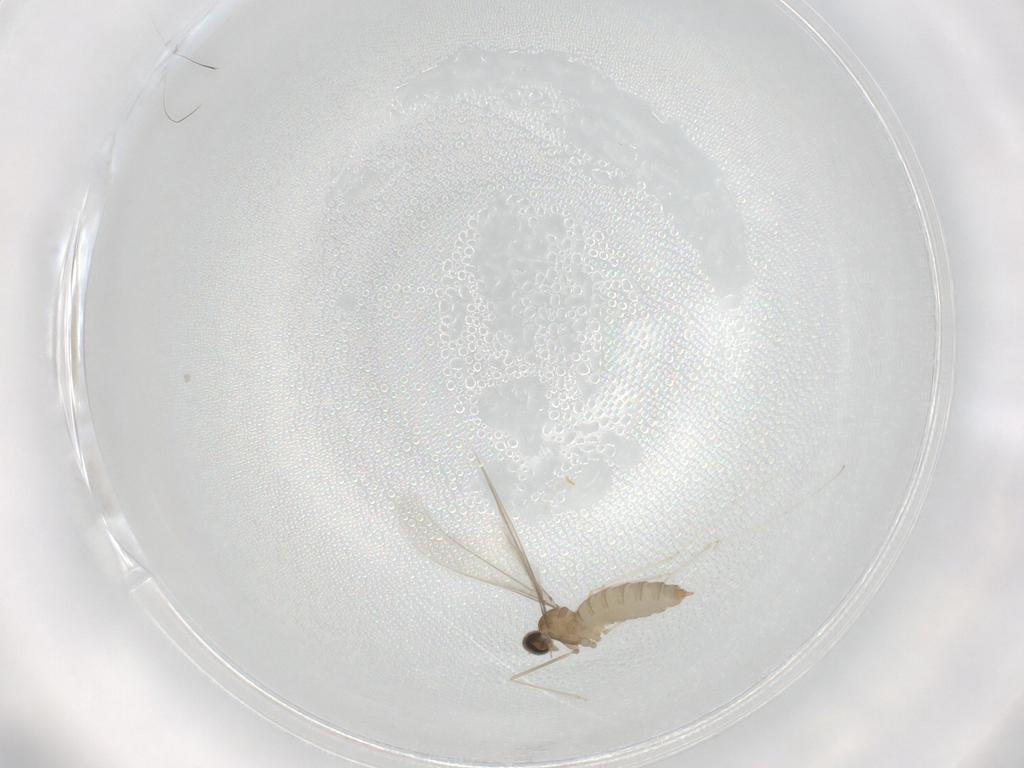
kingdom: Animalia
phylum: Arthropoda
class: Insecta
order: Diptera
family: Cecidomyiidae
